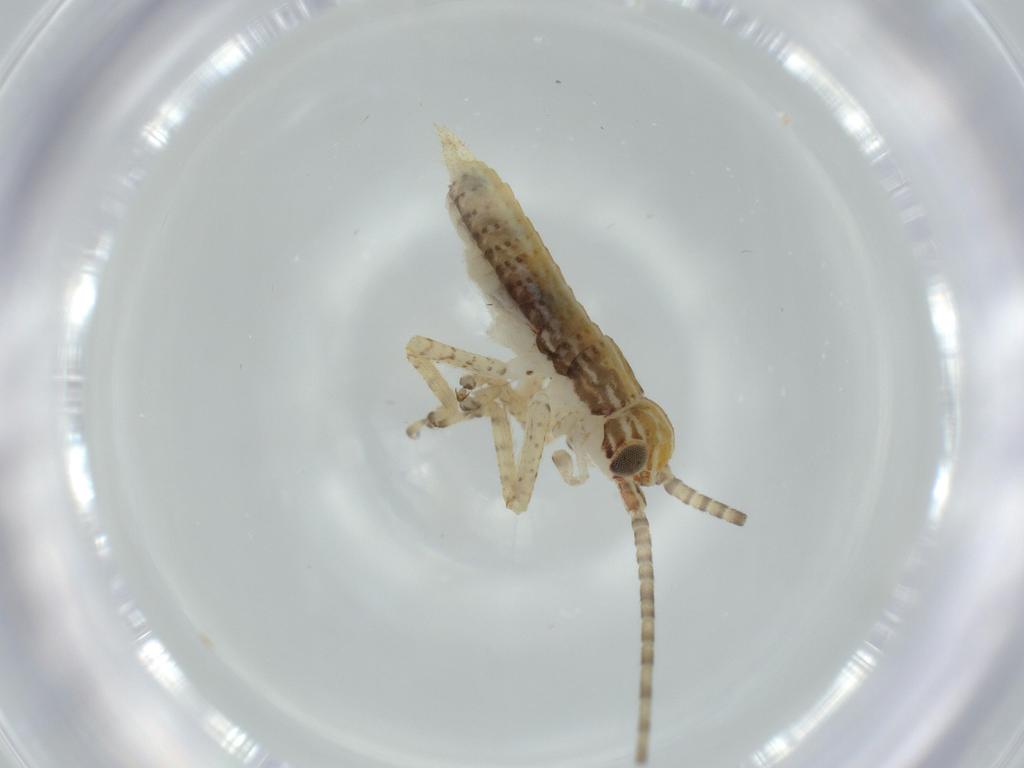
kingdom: Animalia
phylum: Arthropoda
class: Insecta
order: Orthoptera
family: Gryllidae
